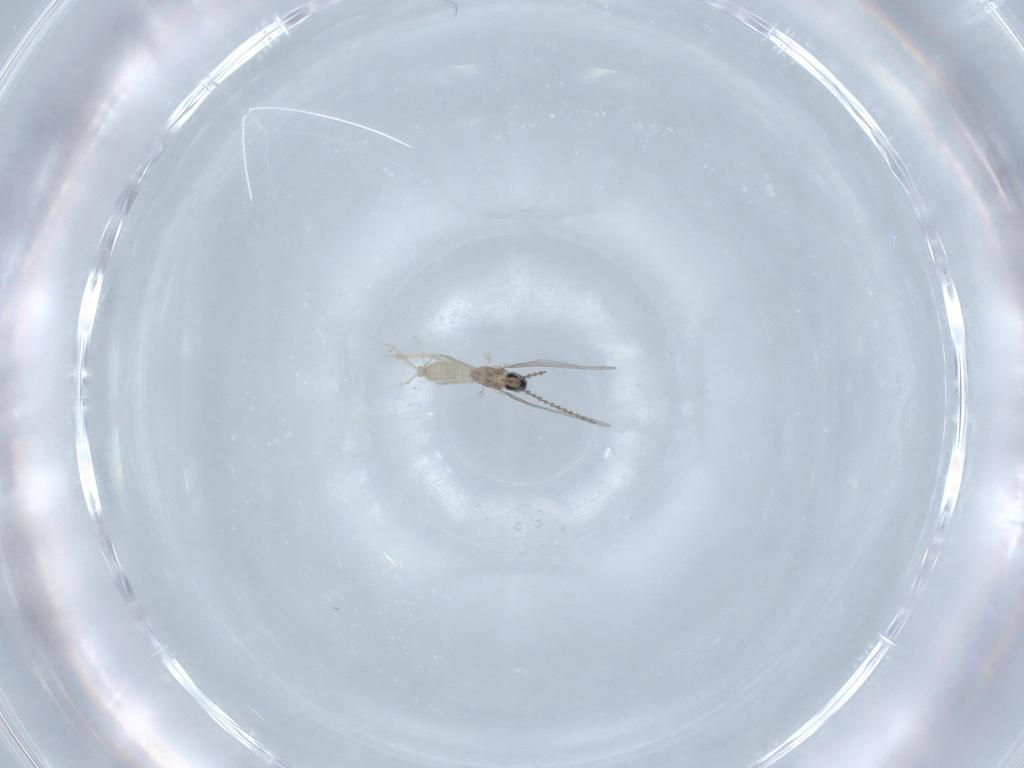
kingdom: Animalia
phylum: Arthropoda
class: Insecta
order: Diptera
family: Cecidomyiidae
